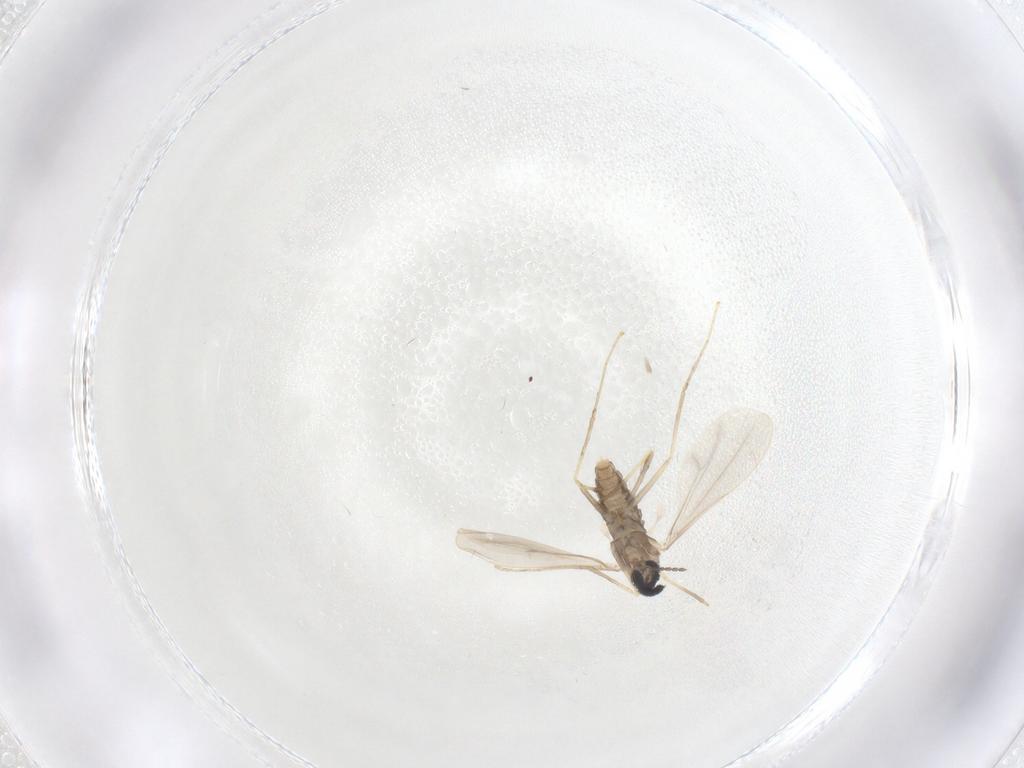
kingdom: Animalia
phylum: Arthropoda
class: Insecta
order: Diptera
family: Cecidomyiidae
